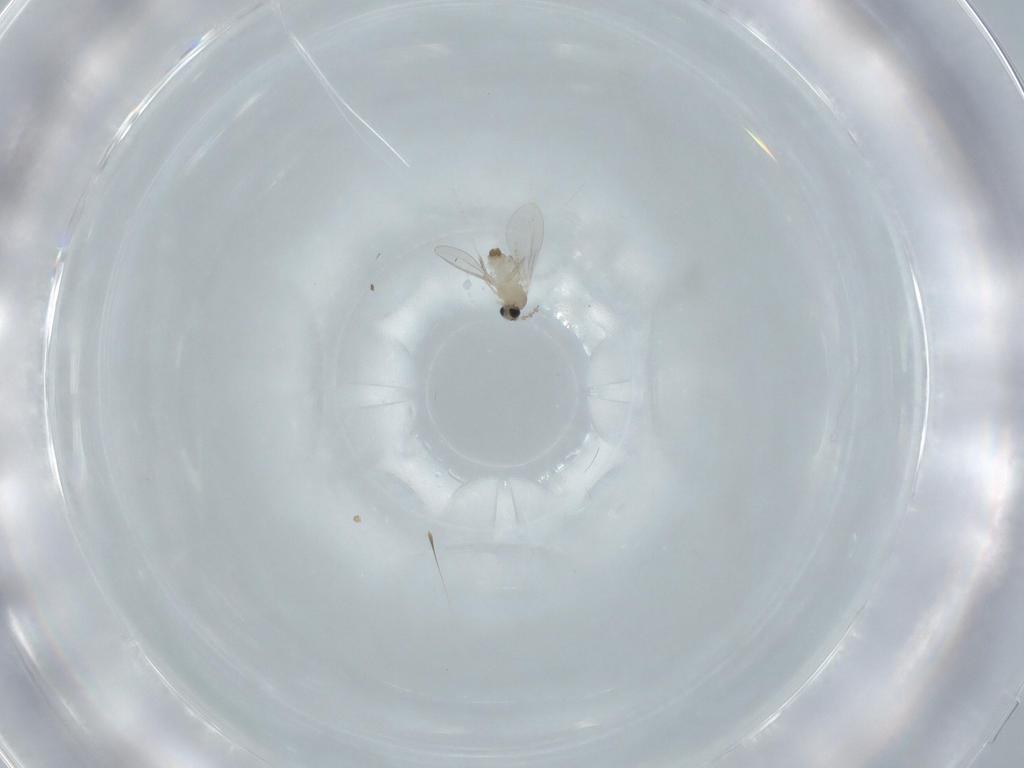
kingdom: Animalia
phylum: Arthropoda
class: Insecta
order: Diptera
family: Cecidomyiidae
